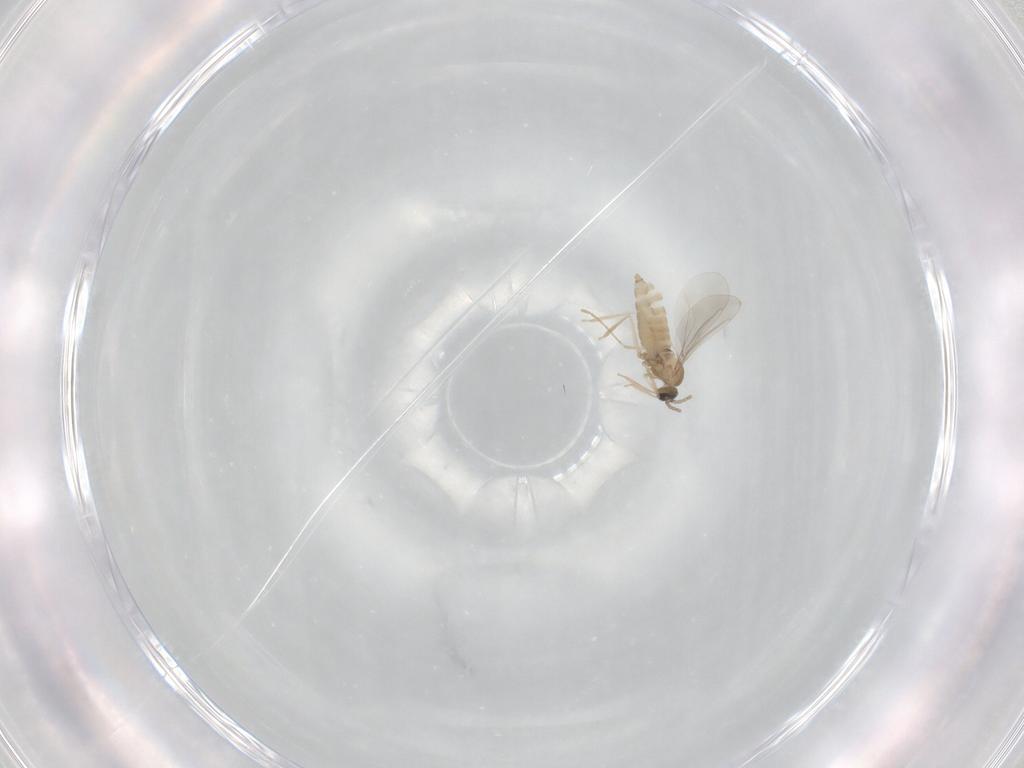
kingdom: Animalia
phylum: Arthropoda
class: Insecta
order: Diptera
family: Cecidomyiidae
